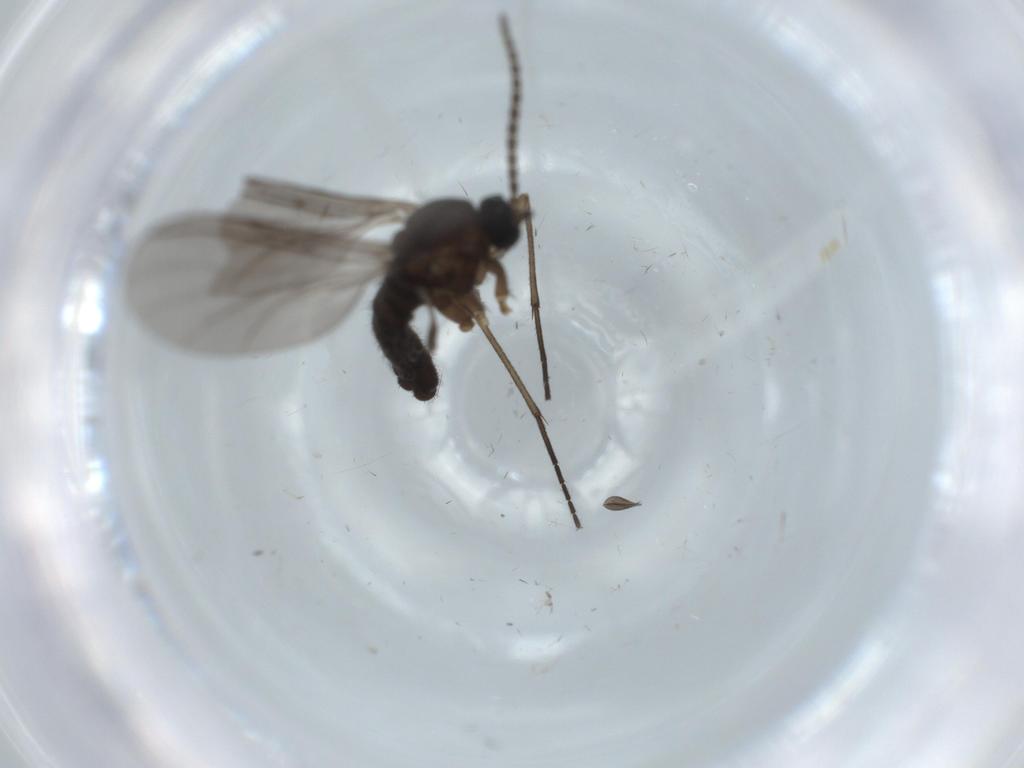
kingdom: Animalia
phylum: Arthropoda
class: Insecta
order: Diptera
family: Sciaridae
